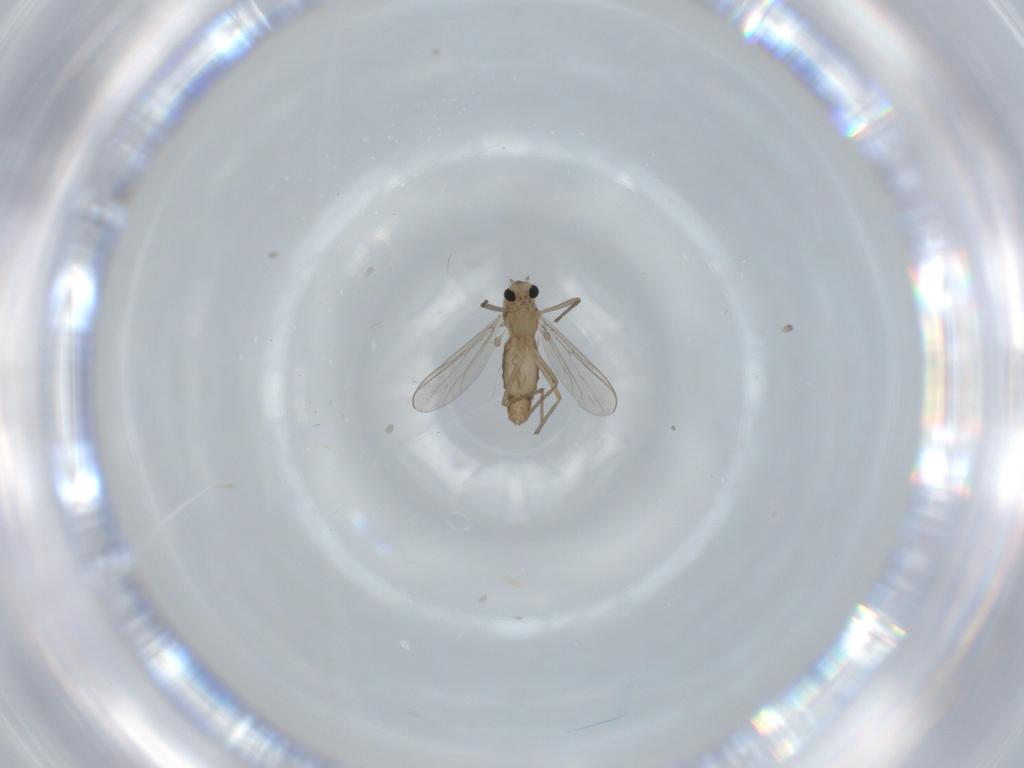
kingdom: Animalia
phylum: Arthropoda
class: Insecta
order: Diptera
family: Chironomidae
